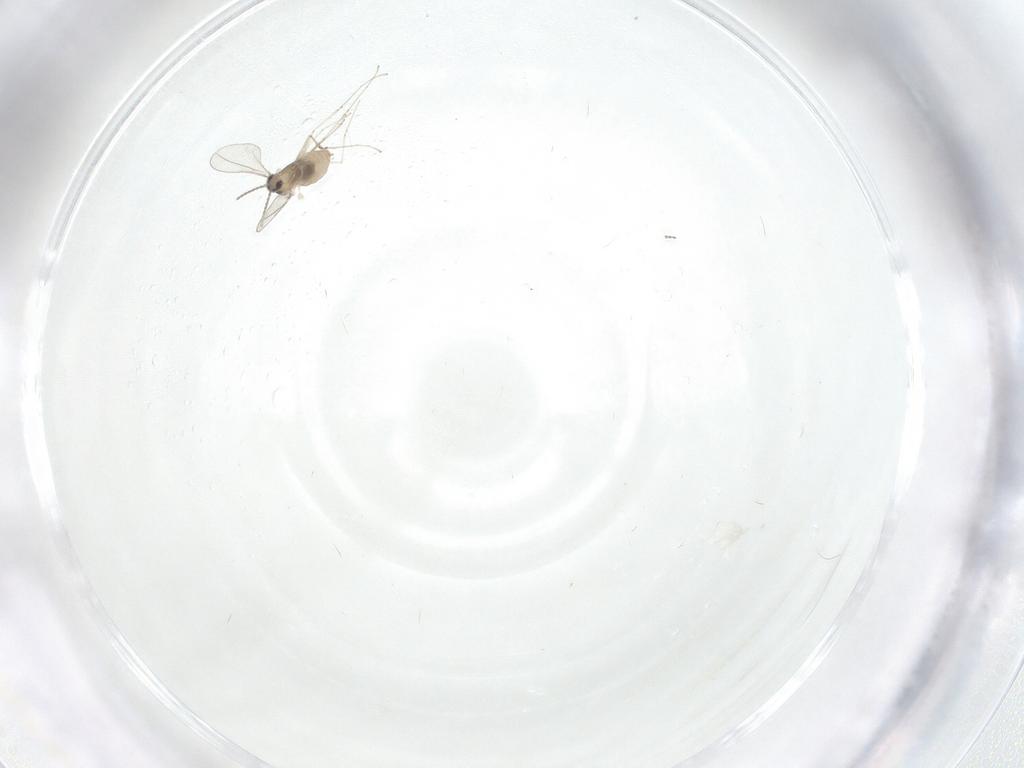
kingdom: Animalia
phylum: Arthropoda
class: Insecta
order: Diptera
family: Cecidomyiidae
